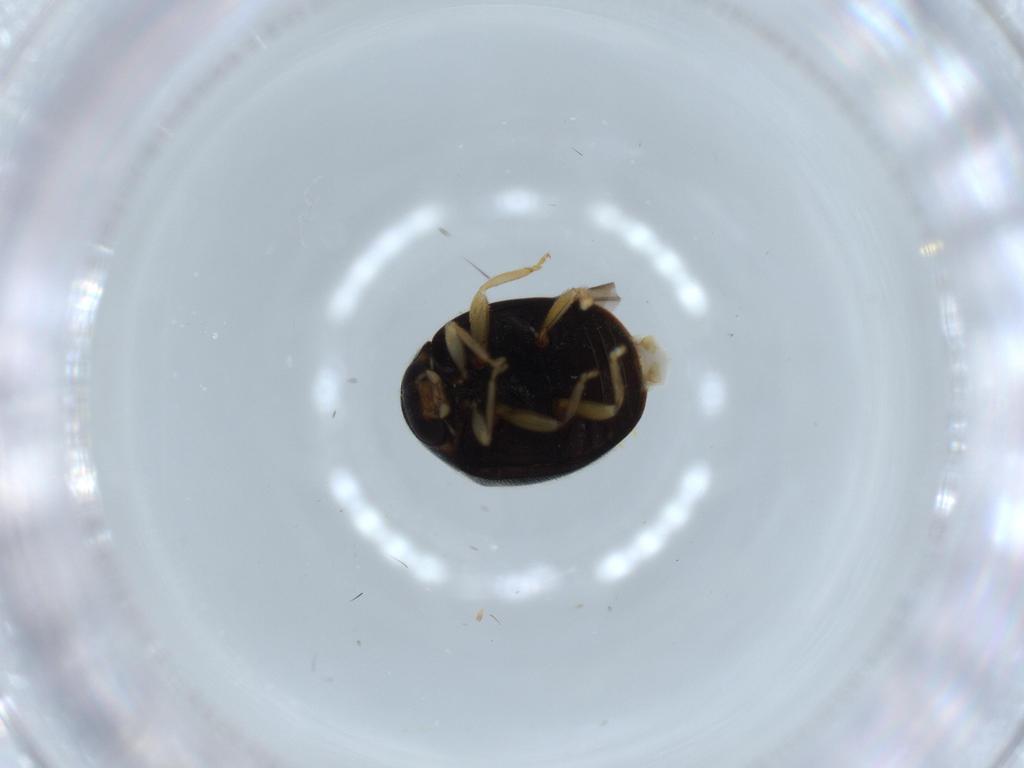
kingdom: Animalia
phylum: Arthropoda
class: Insecta
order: Coleoptera
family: Coccinellidae
